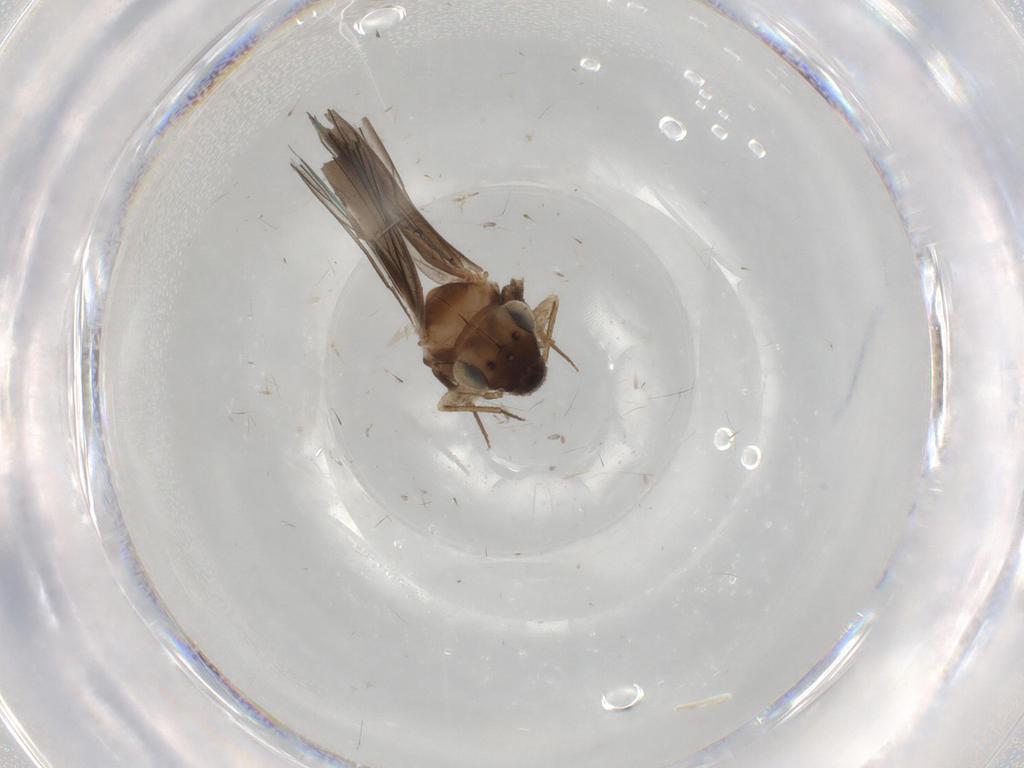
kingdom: Animalia
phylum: Arthropoda
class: Insecta
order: Psocodea
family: Lepidopsocidae
